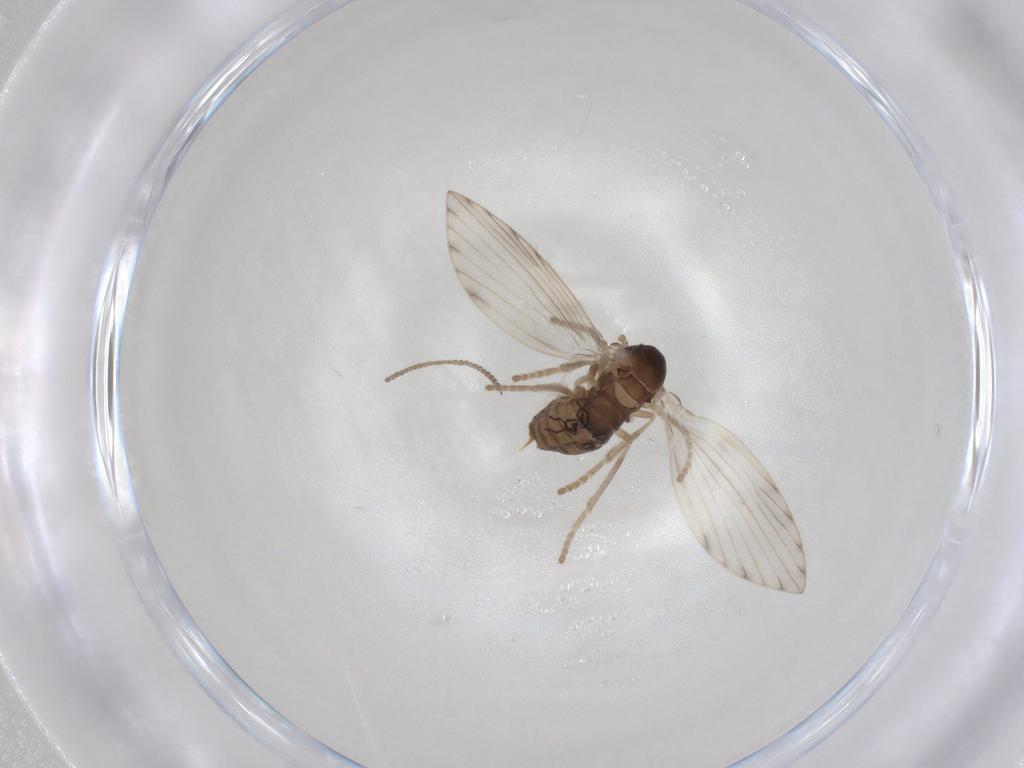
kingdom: Animalia
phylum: Arthropoda
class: Insecta
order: Diptera
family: Psychodidae
